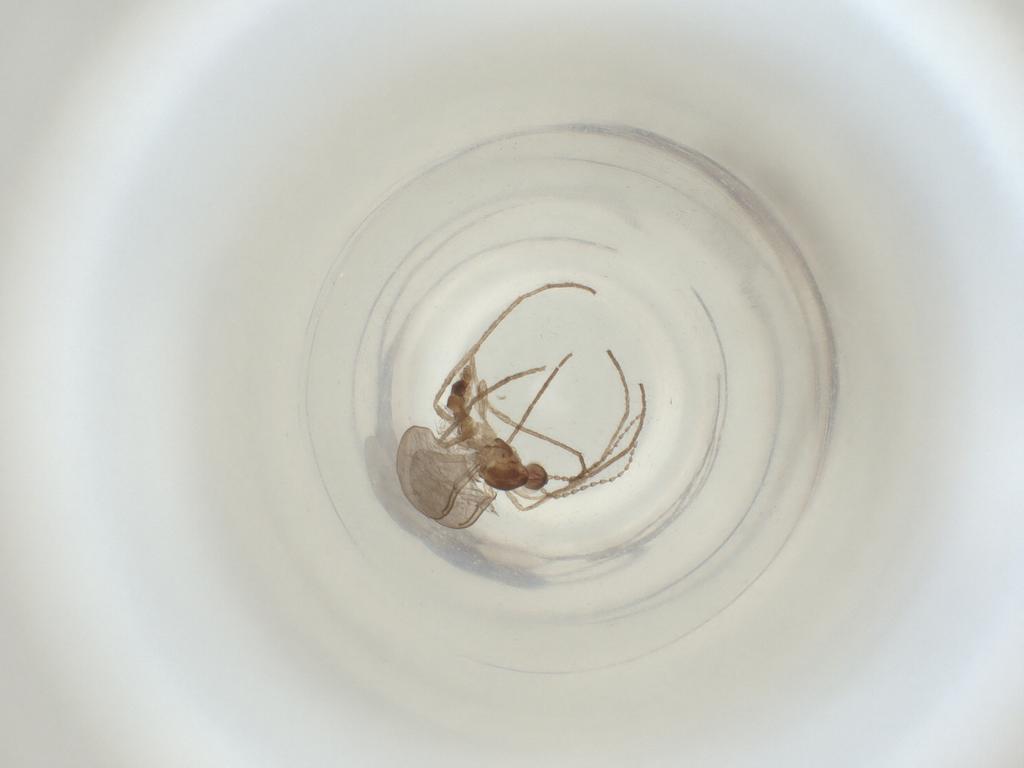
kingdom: Animalia
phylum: Arthropoda
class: Insecta
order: Diptera
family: Cecidomyiidae
